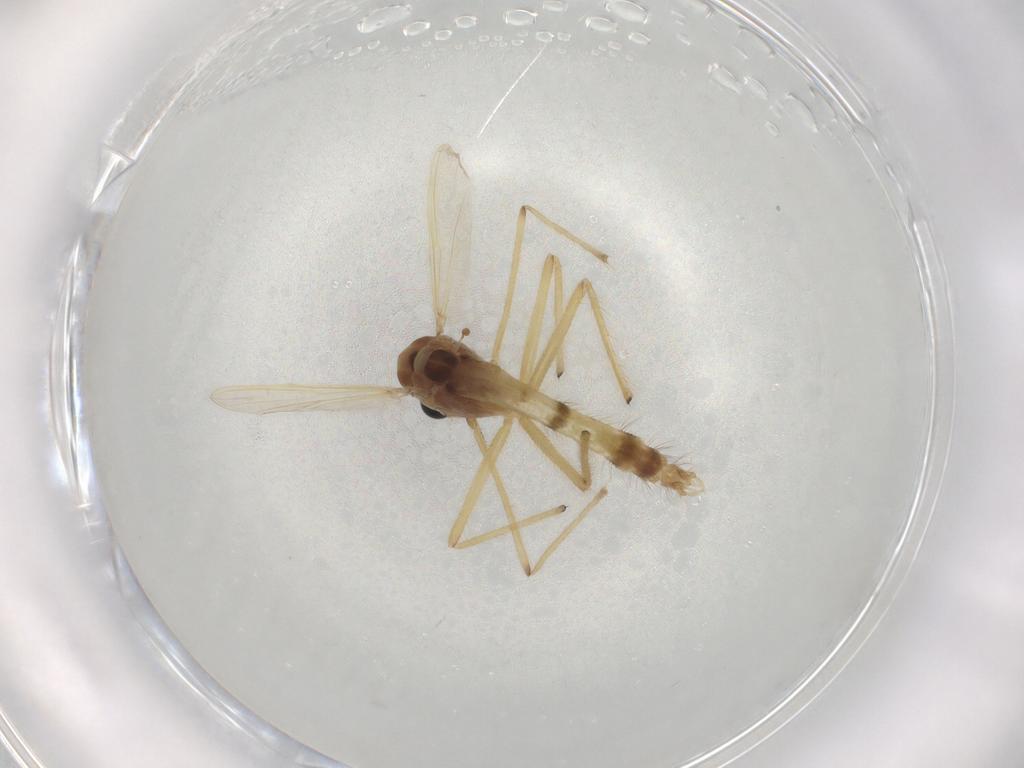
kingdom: Animalia
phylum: Arthropoda
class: Insecta
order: Diptera
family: Chironomidae
